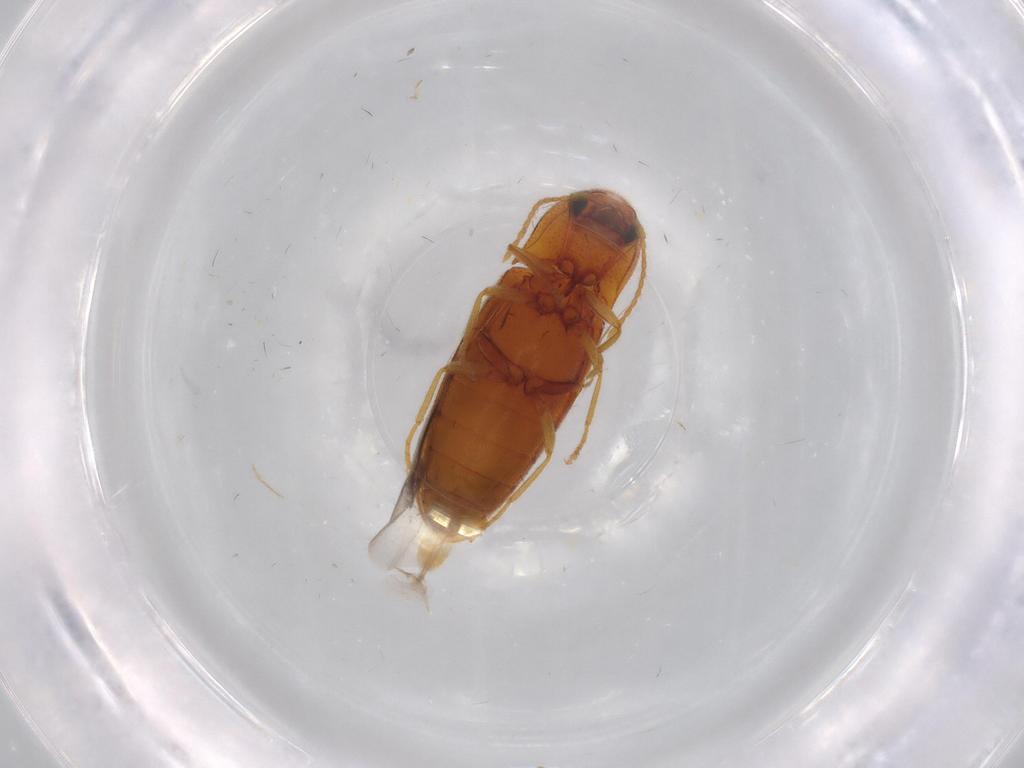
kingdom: Animalia
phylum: Arthropoda
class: Insecta
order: Coleoptera
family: Elateridae
